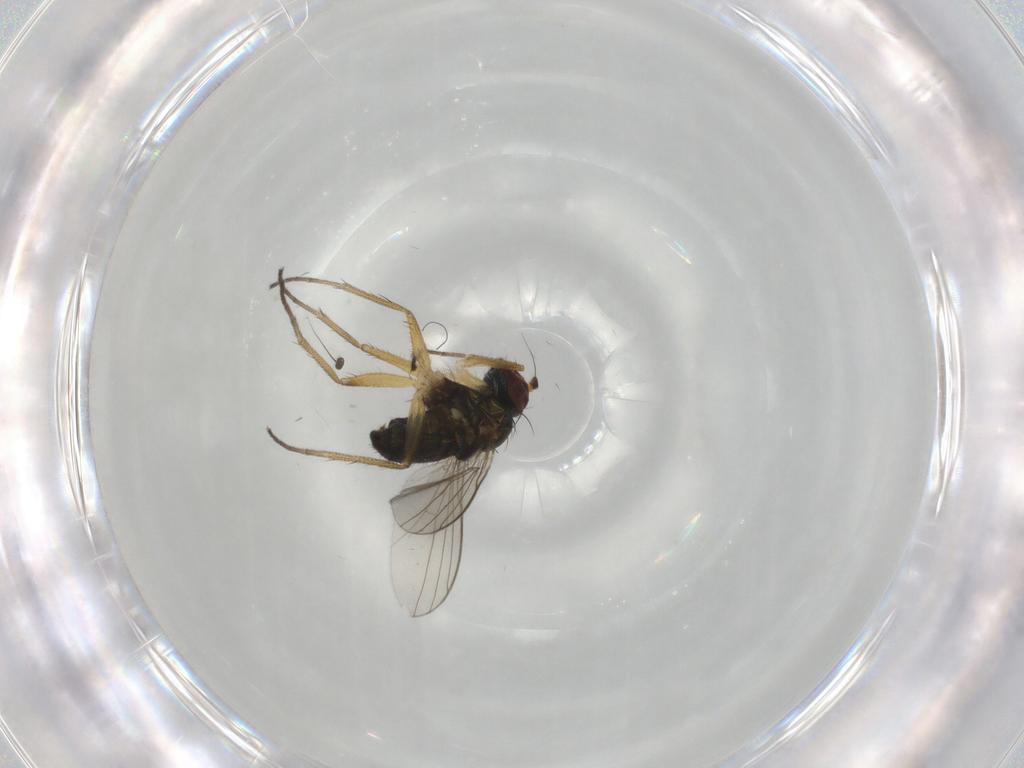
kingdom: Animalia
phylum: Arthropoda
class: Insecta
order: Diptera
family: Dolichopodidae
